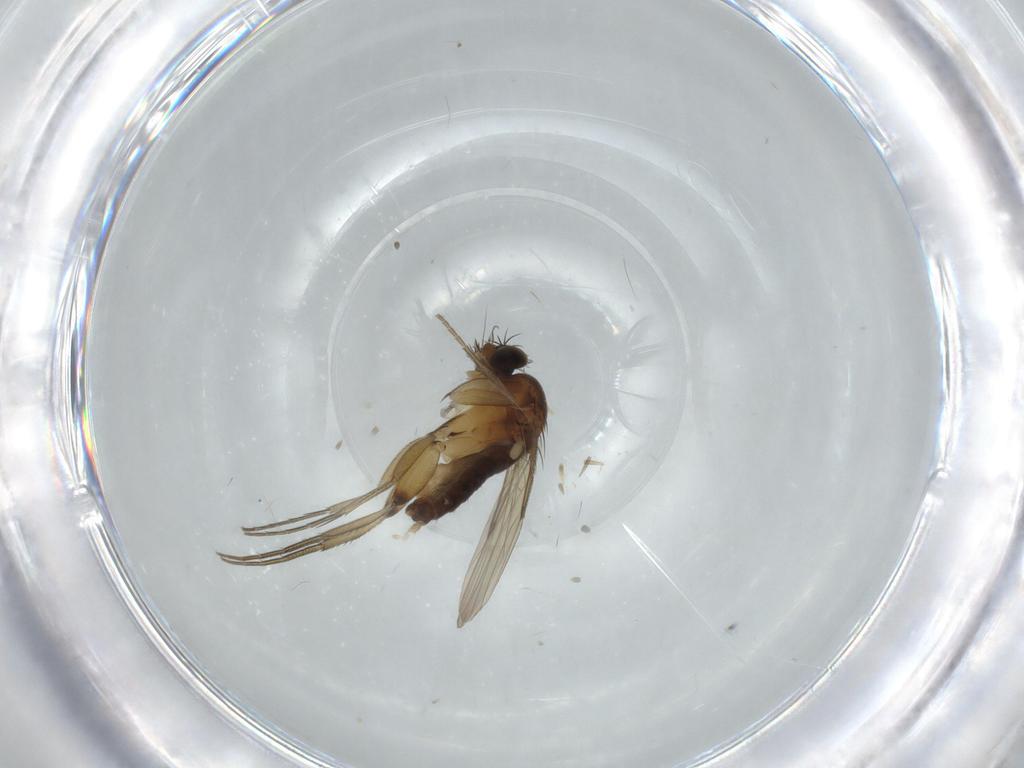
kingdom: Animalia
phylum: Arthropoda
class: Insecta
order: Diptera
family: Phoridae
